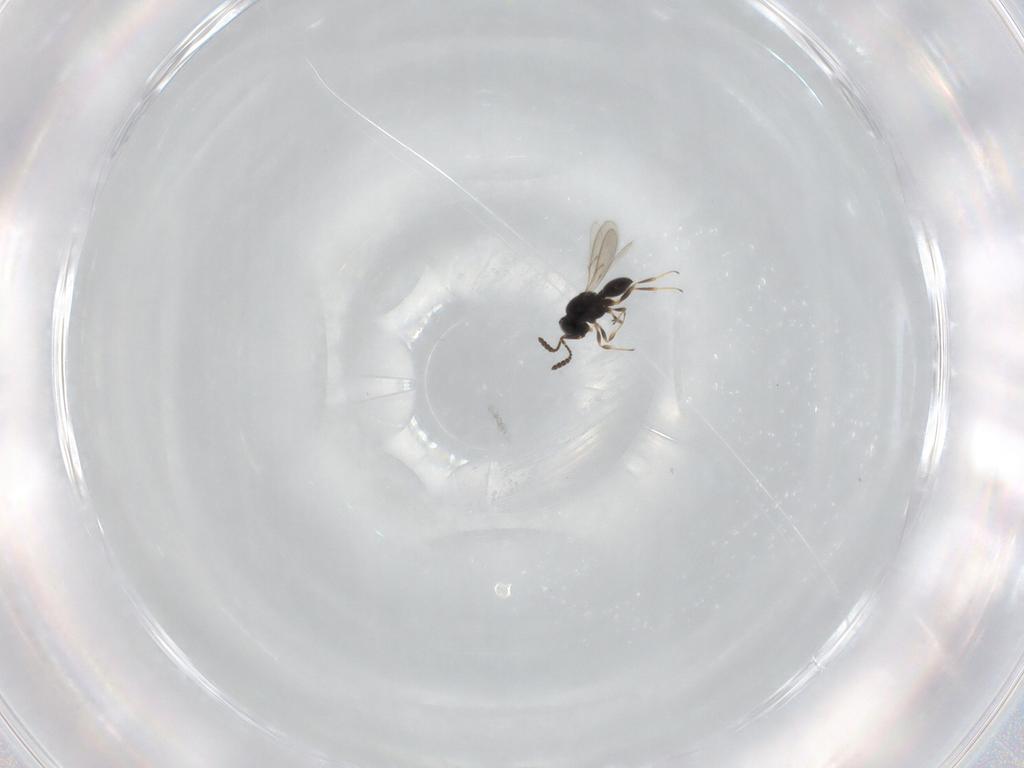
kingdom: Animalia
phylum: Arthropoda
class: Insecta
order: Hymenoptera
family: Scelionidae
